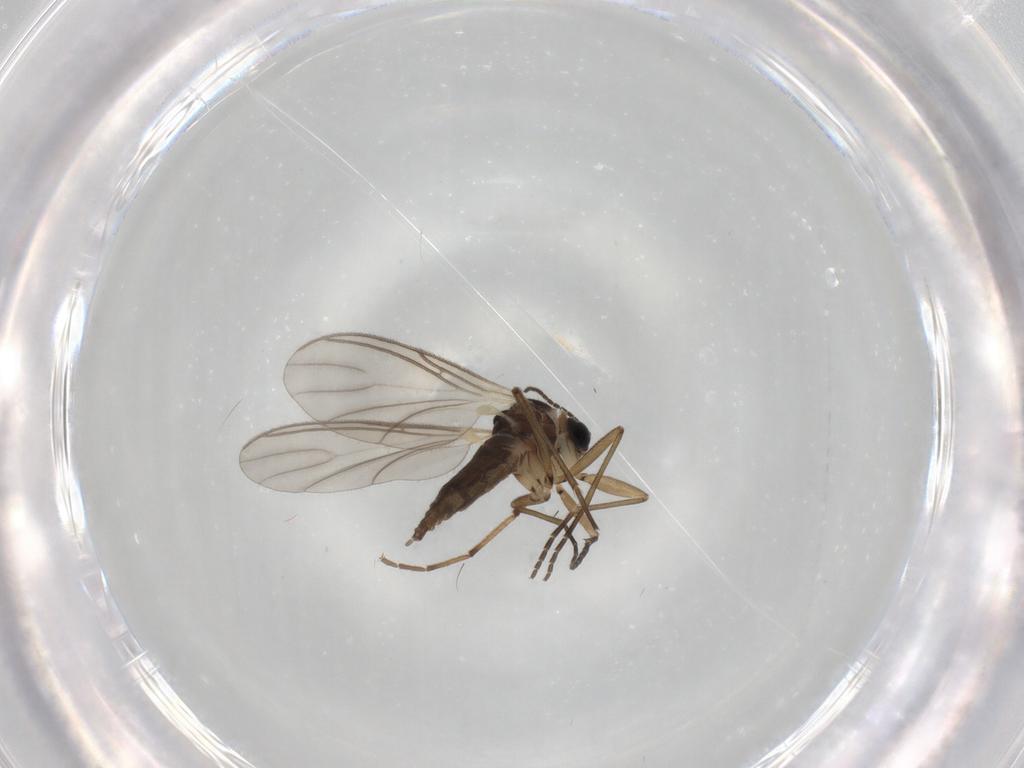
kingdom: Animalia
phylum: Arthropoda
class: Insecta
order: Diptera
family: Chironomidae
